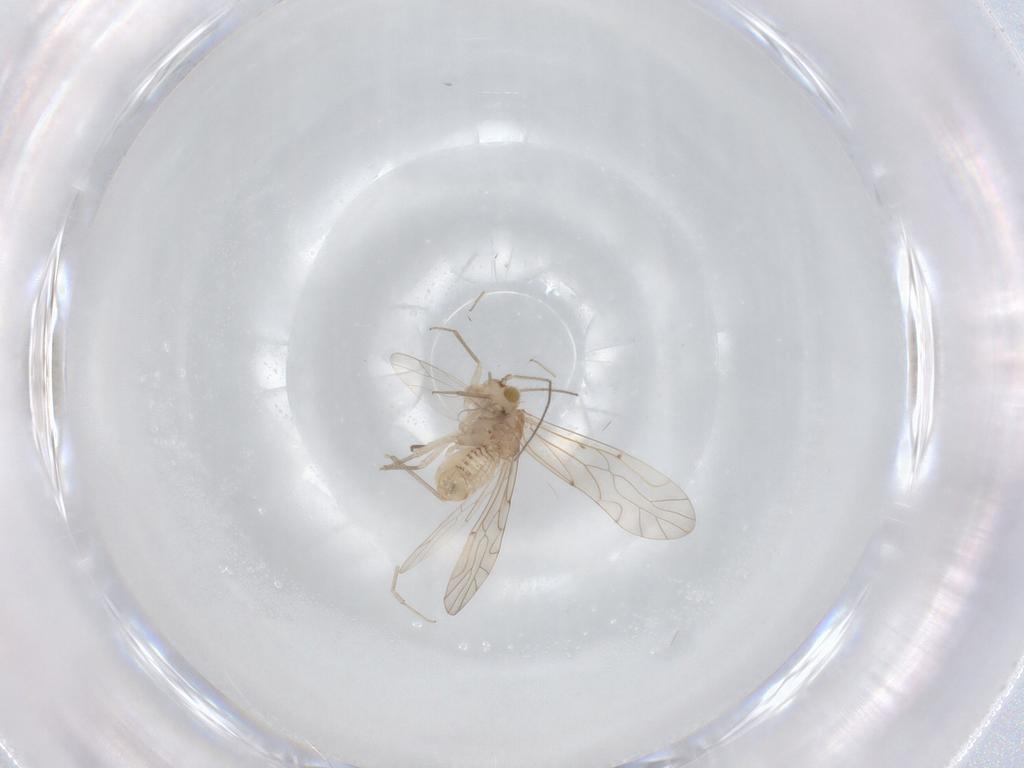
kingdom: Animalia
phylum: Arthropoda
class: Insecta
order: Psocodea
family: Lachesillidae
